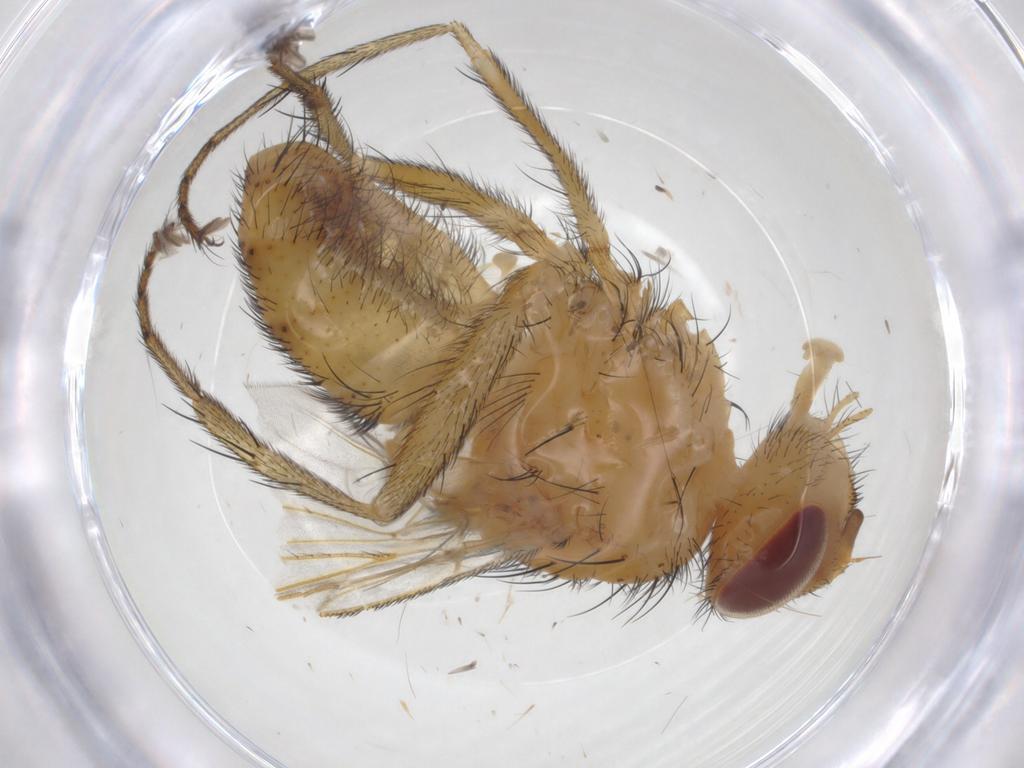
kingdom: Animalia
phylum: Arthropoda
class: Insecta
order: Diptera
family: Tachinidae
